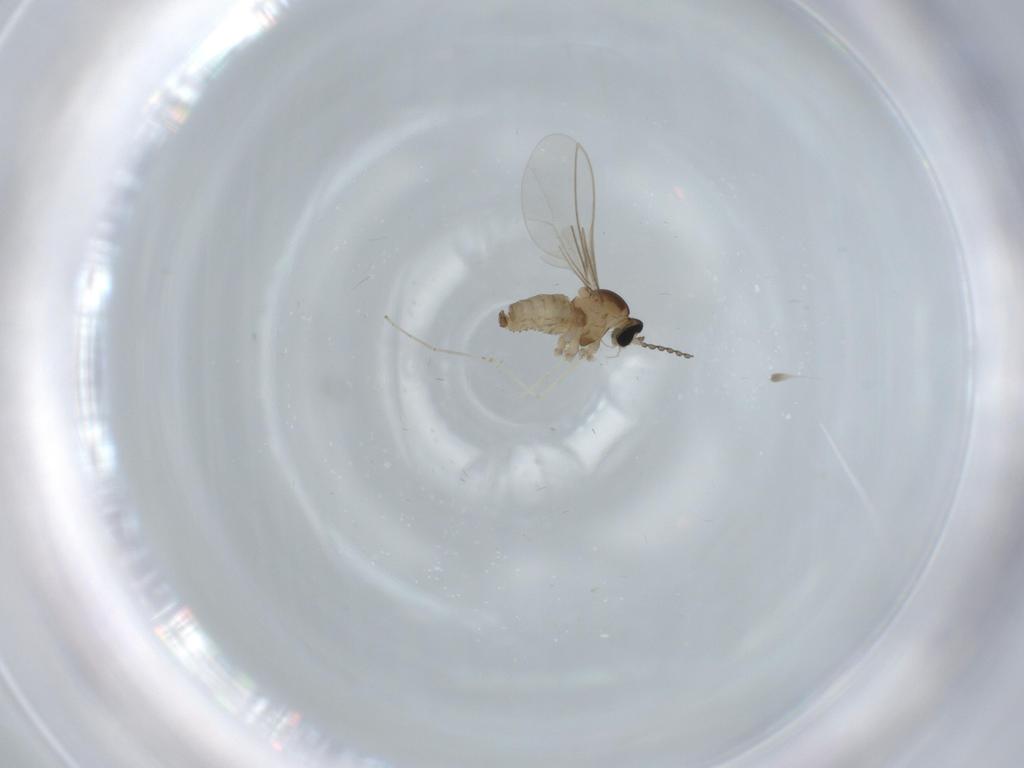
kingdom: Animalia
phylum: Arthropoda
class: Insecta
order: Diptera
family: Cecidomyiidae
